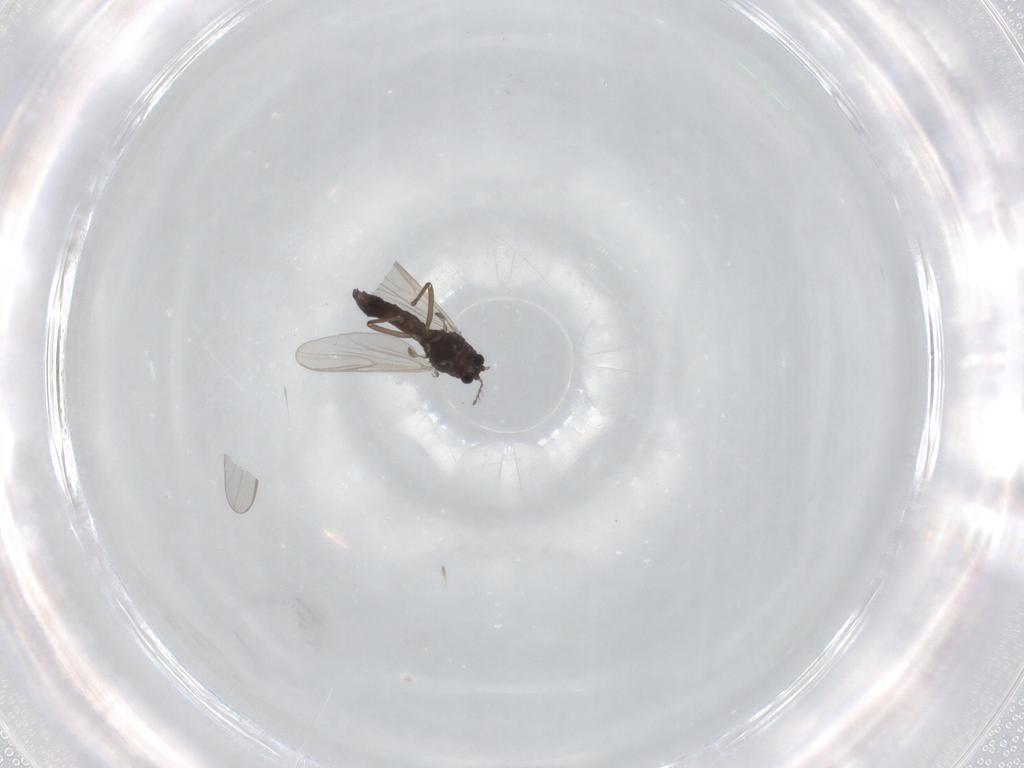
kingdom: Animalia
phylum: Arthropoda
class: Insecta
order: Diptera
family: Chironomidae
